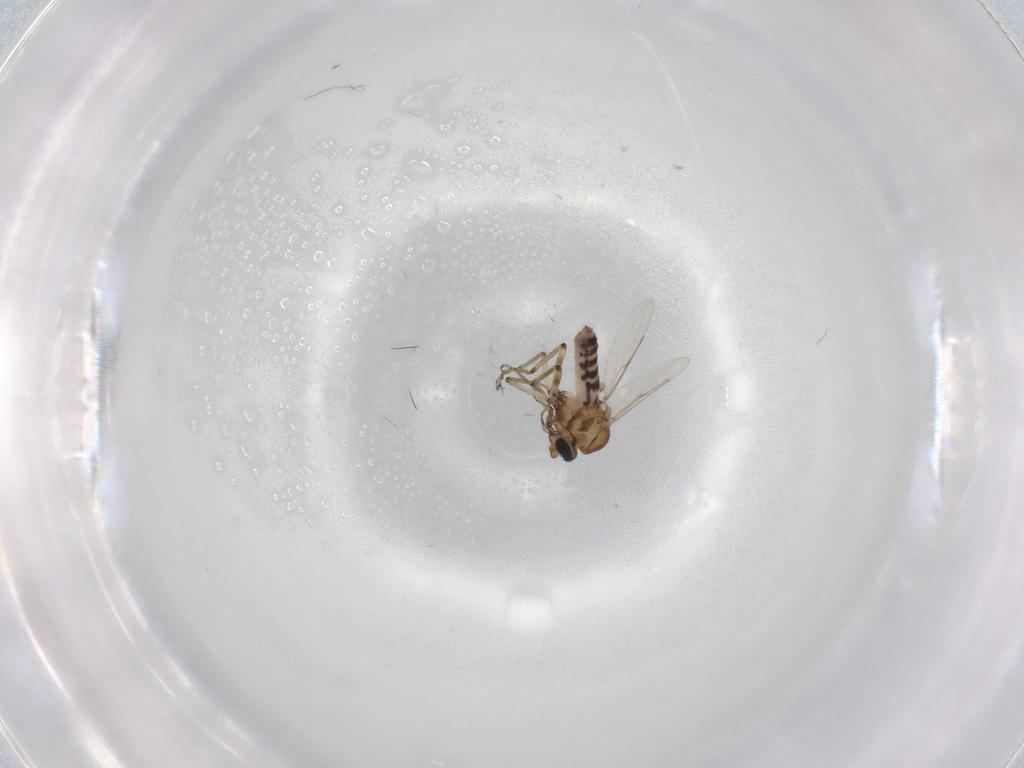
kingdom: Animalia
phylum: Arthropoda
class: Insecta
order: Diptera
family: Ceratopogonidae
